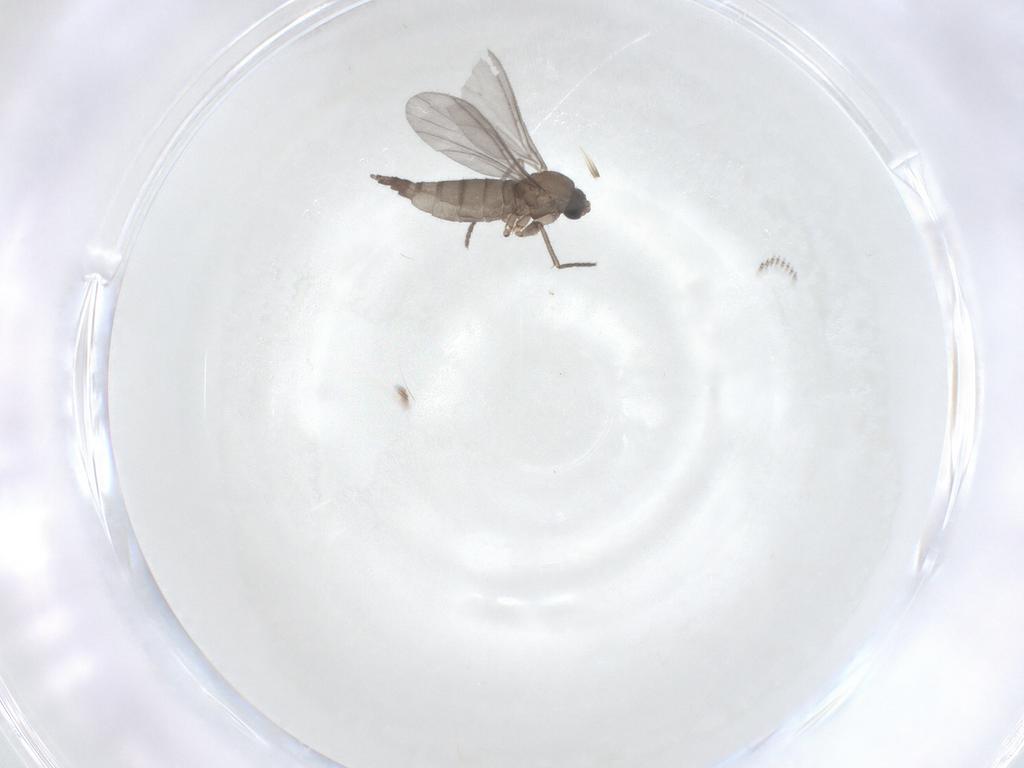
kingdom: Animalia
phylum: Arthropoda
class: Insecta
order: Diptera
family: Sciaridae
